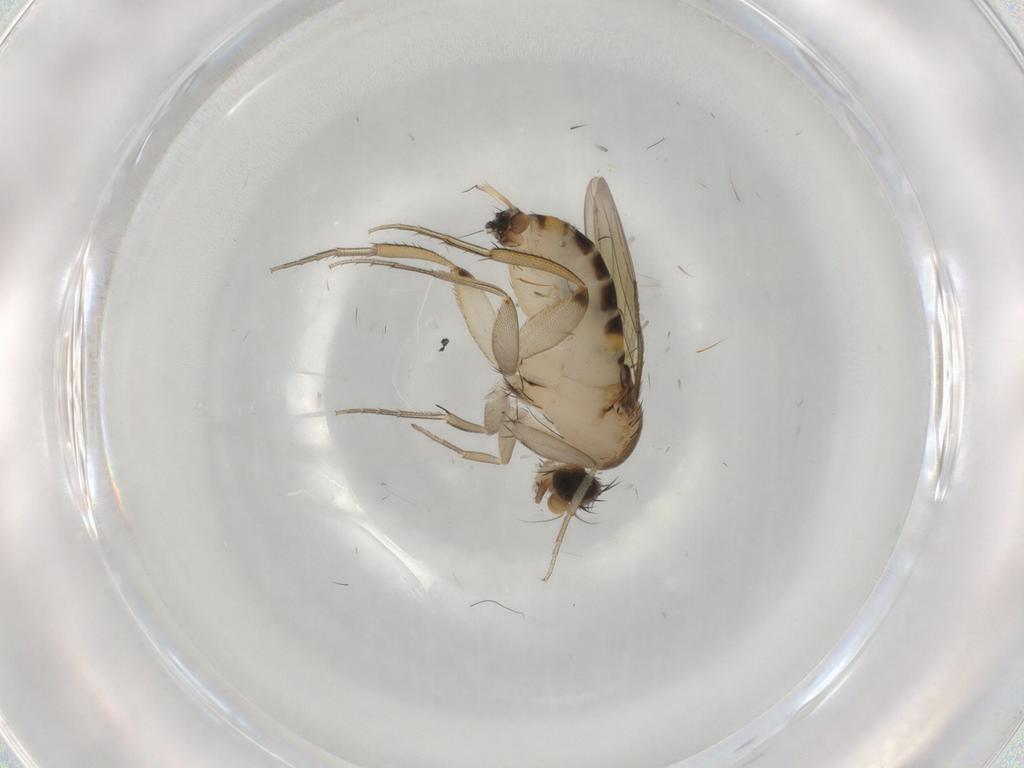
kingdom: Animalia
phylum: Arthropoda
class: Insecta
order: Diptera
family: Phoridae
